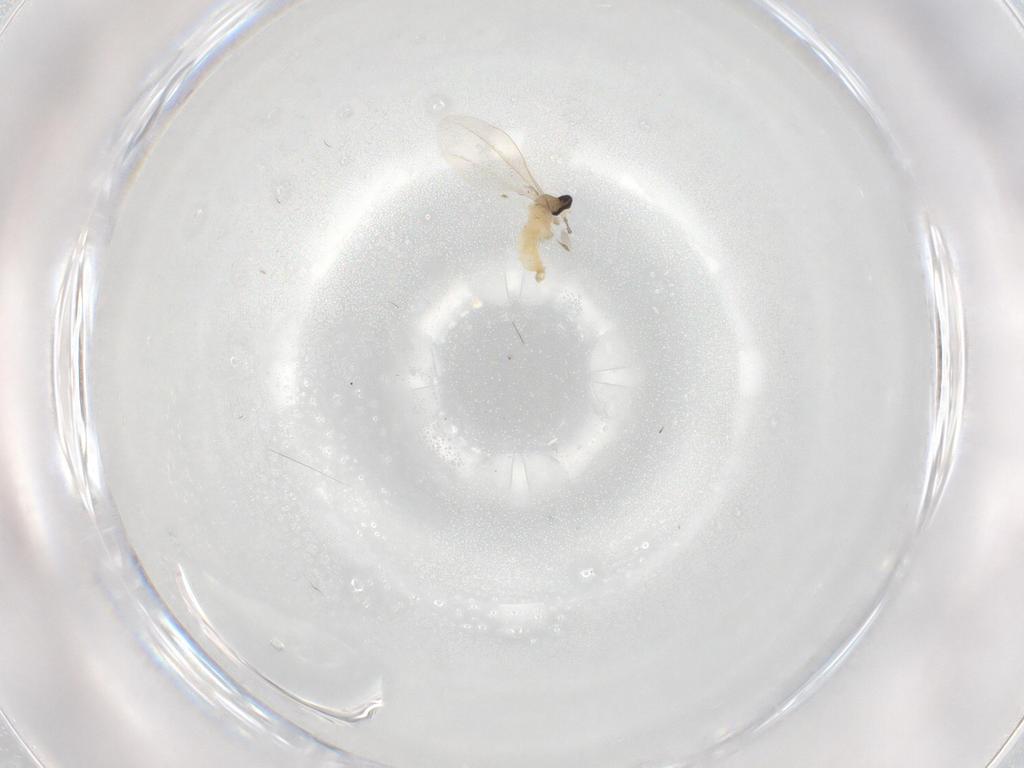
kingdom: Animalia
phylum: Arthropoda
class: Insecta
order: Diptera
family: Cecidomyiidae
